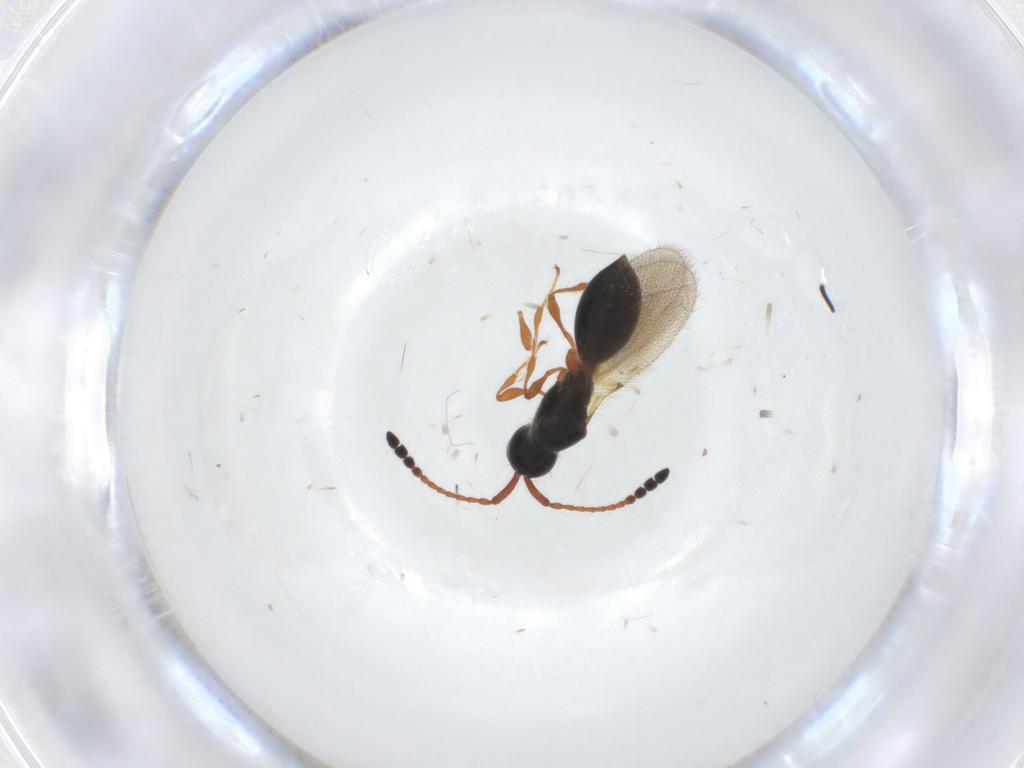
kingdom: Animalia
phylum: Arthropoda
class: Insecta
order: Hymenoptera
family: Diapriidae
